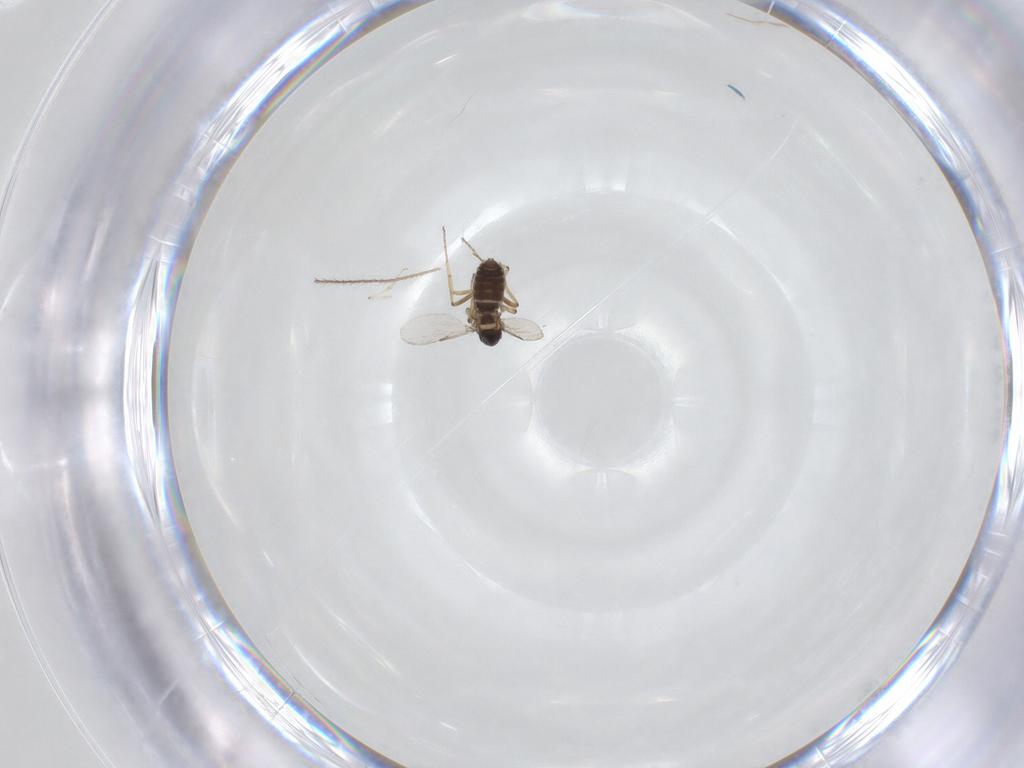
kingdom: Animalia
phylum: Arthropoda
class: Insecta
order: Diptera
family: Ceratopogonidae
